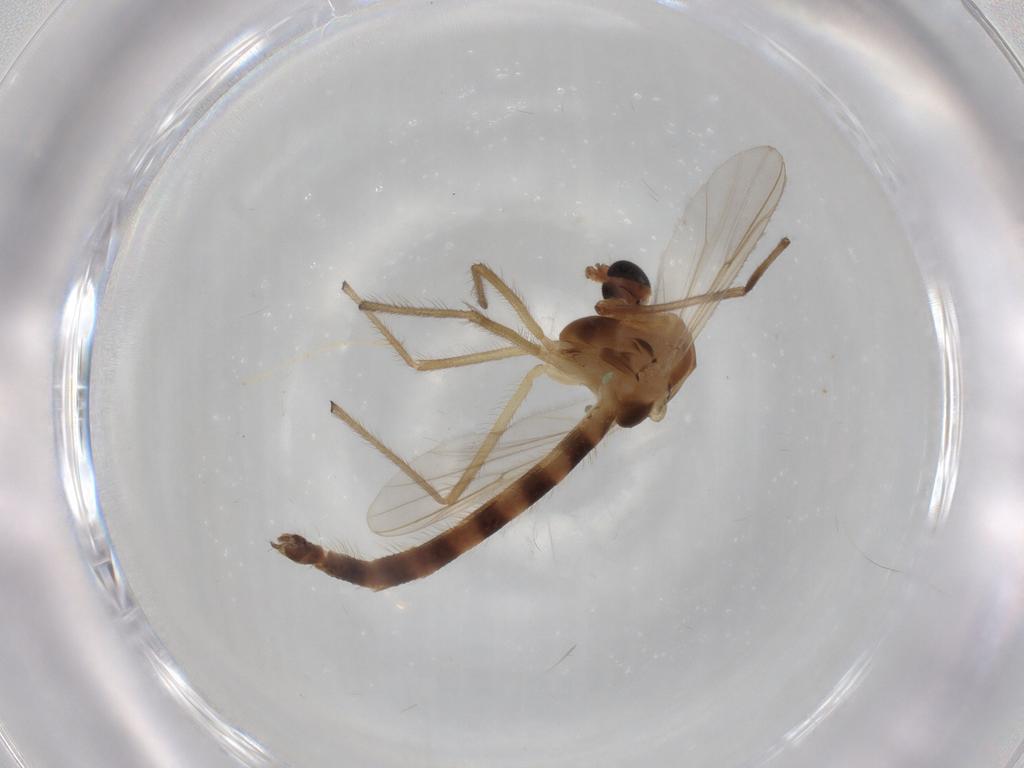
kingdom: Animalia
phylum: Arthropoda
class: Insecta
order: Diptera
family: Chironomidae
